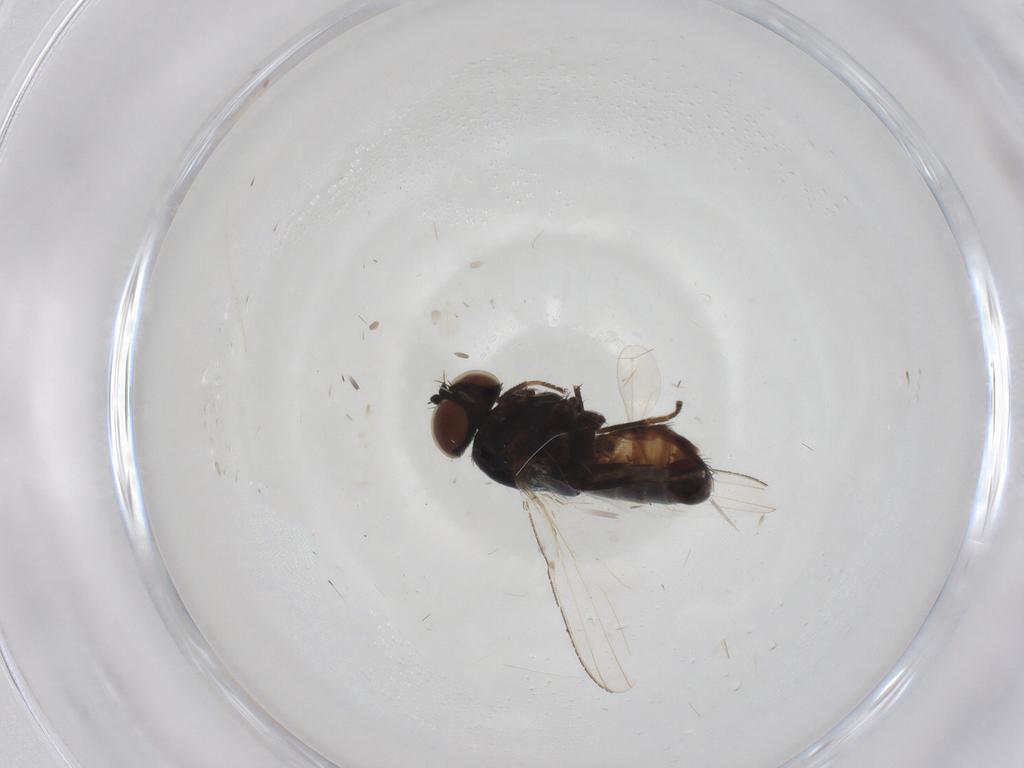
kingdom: Animalia
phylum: Arthropoda
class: Insecta
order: Diptera
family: Milichiidae
